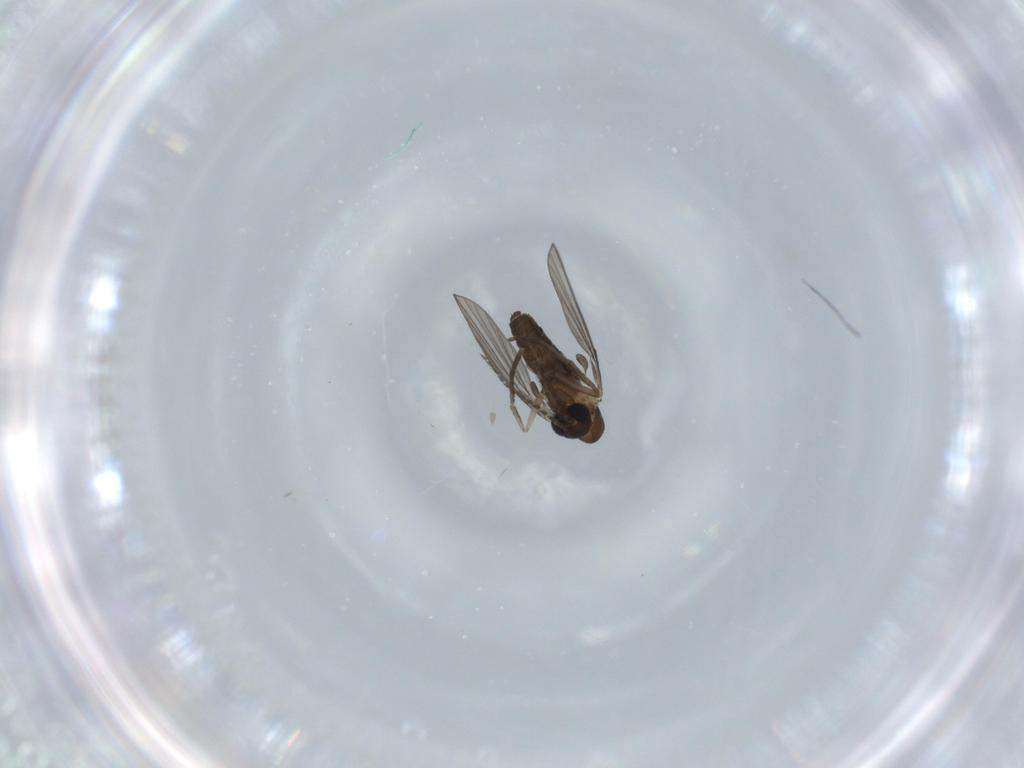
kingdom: Animalia
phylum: Arthropoda
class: Insecta
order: Diptera
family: Psychodidae
